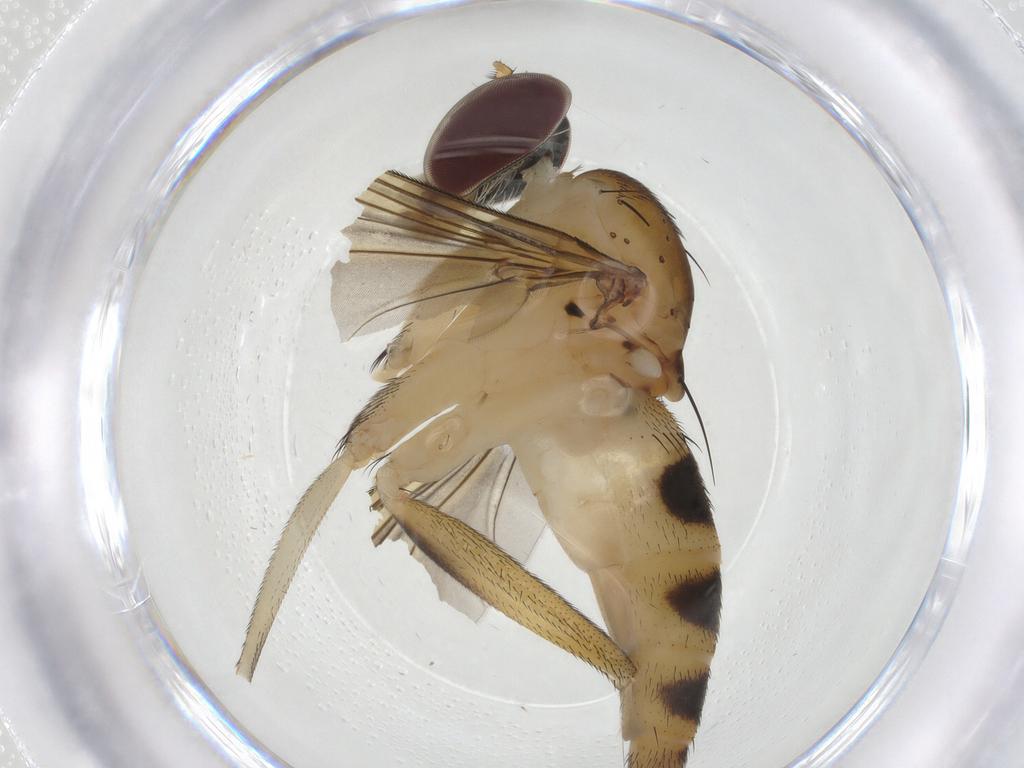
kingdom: Animalia
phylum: Arthropoda
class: Insecta
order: Diptera
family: Dolichopodidae
